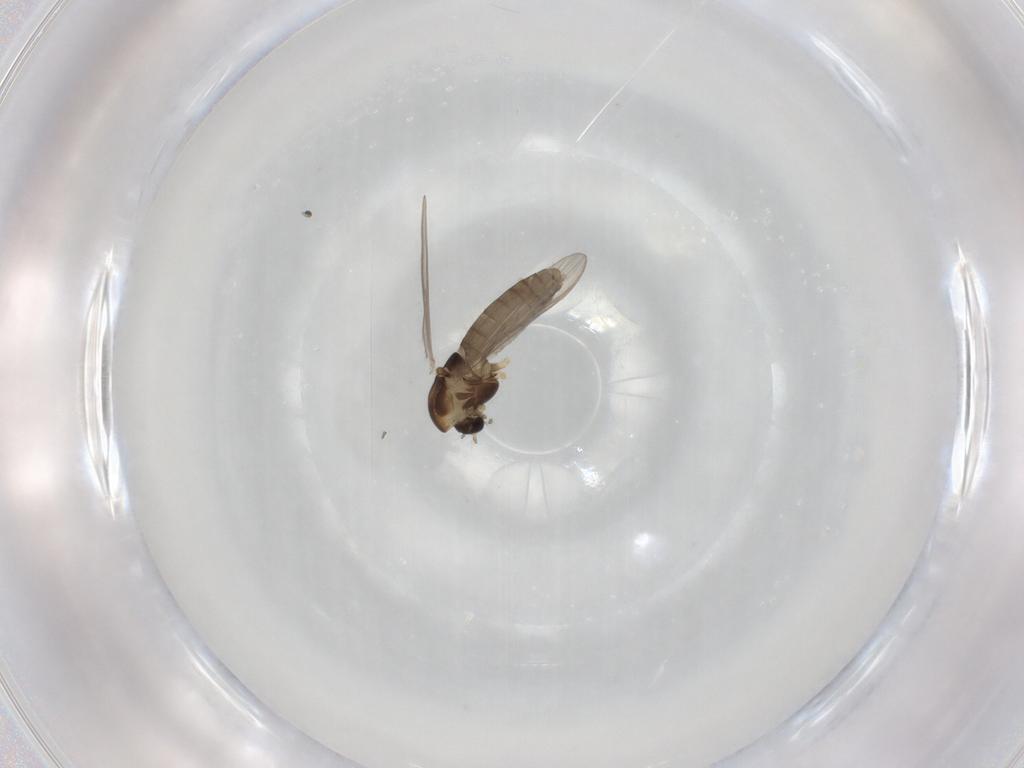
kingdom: Animalia
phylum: Arthropoda
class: Insecta
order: Diptera
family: Chironomidae
